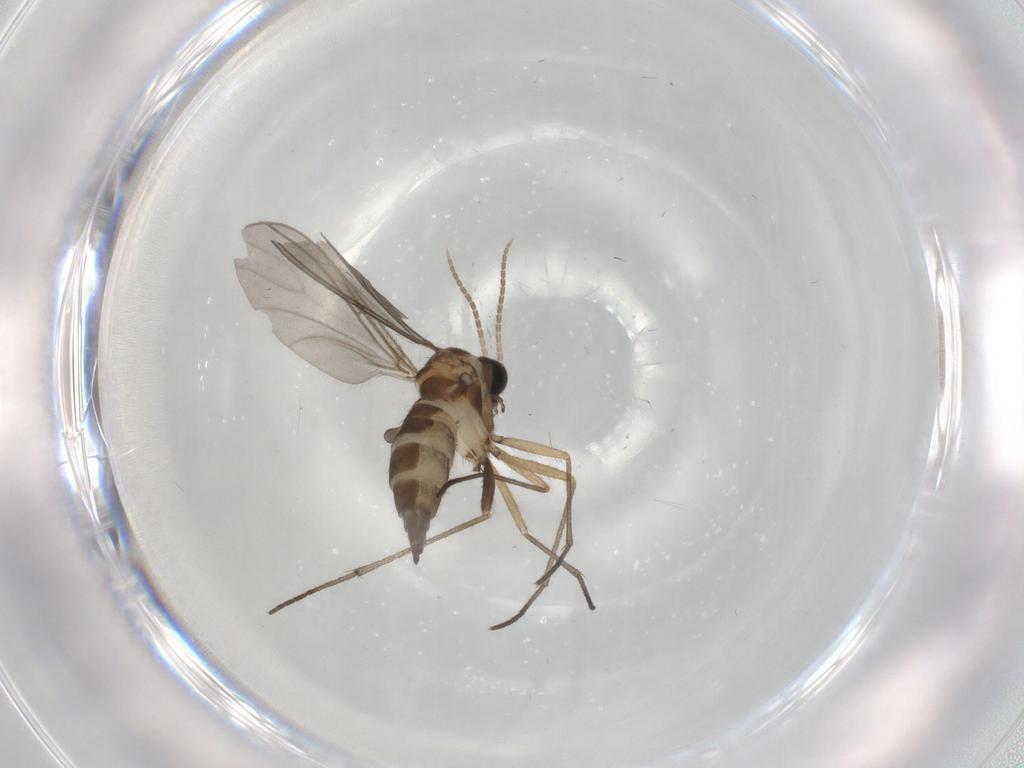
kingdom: Animalia
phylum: Arthropoda
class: Insecta
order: Diptera
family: Sciaridae
